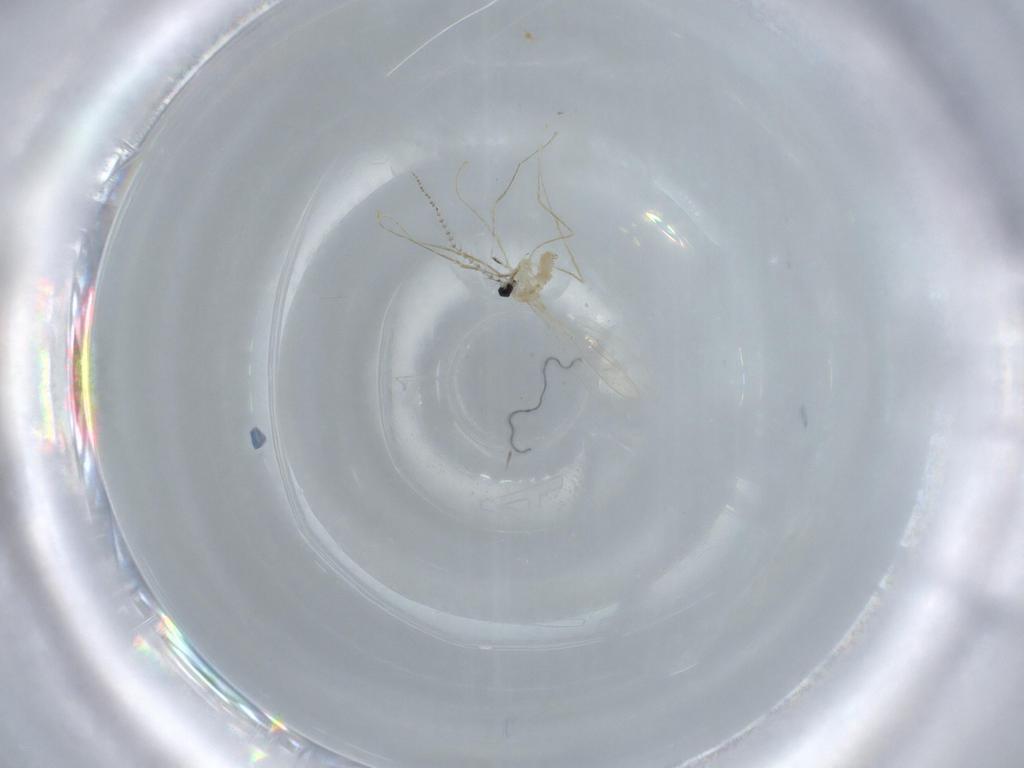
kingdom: Animalia
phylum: Arthropoda
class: Insecta
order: Diptera
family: Cecidomyiidae
